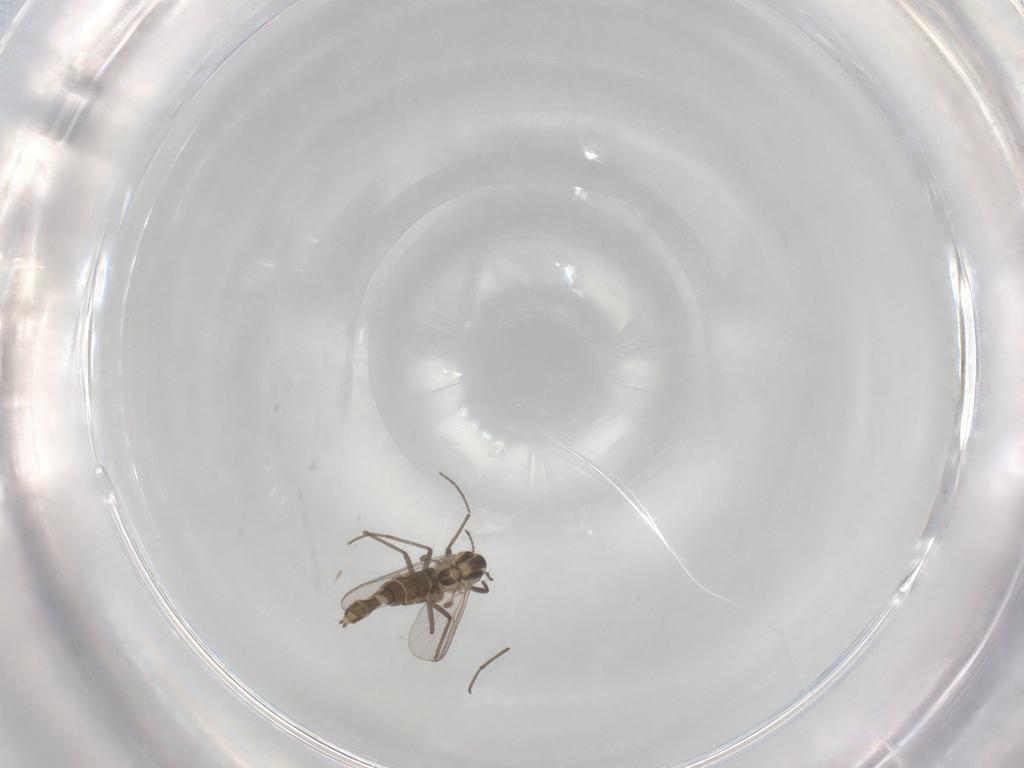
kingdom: Animalia
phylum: Arthropoda
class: Insecta
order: Diptera
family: Chironomidae
